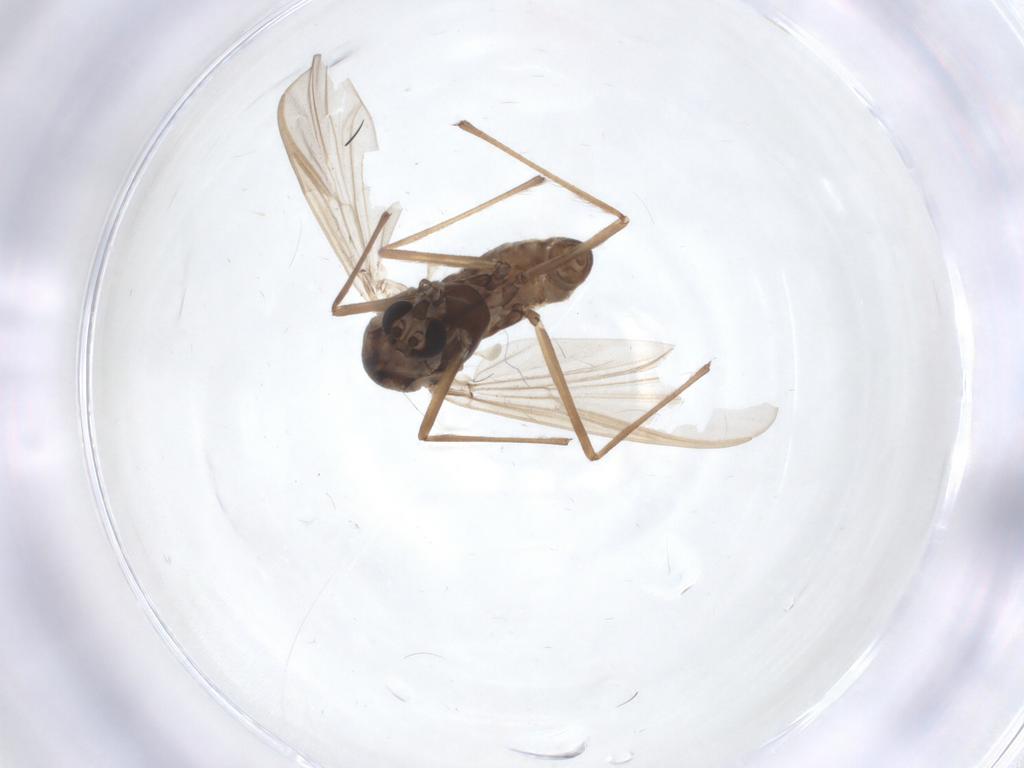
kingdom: Animalia
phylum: Arthropoda
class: Insecta
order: Diptera
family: Chironomidae
